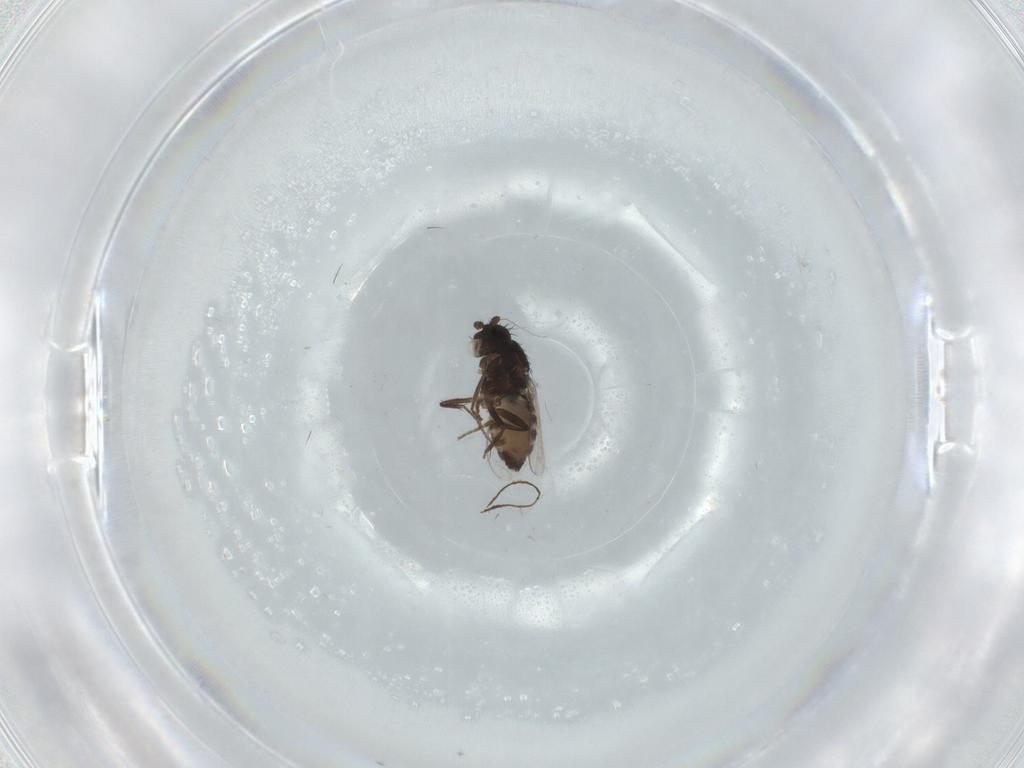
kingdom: Animalia
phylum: Arthropoda
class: Insecta
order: Diptera
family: Sphaeroceridae
